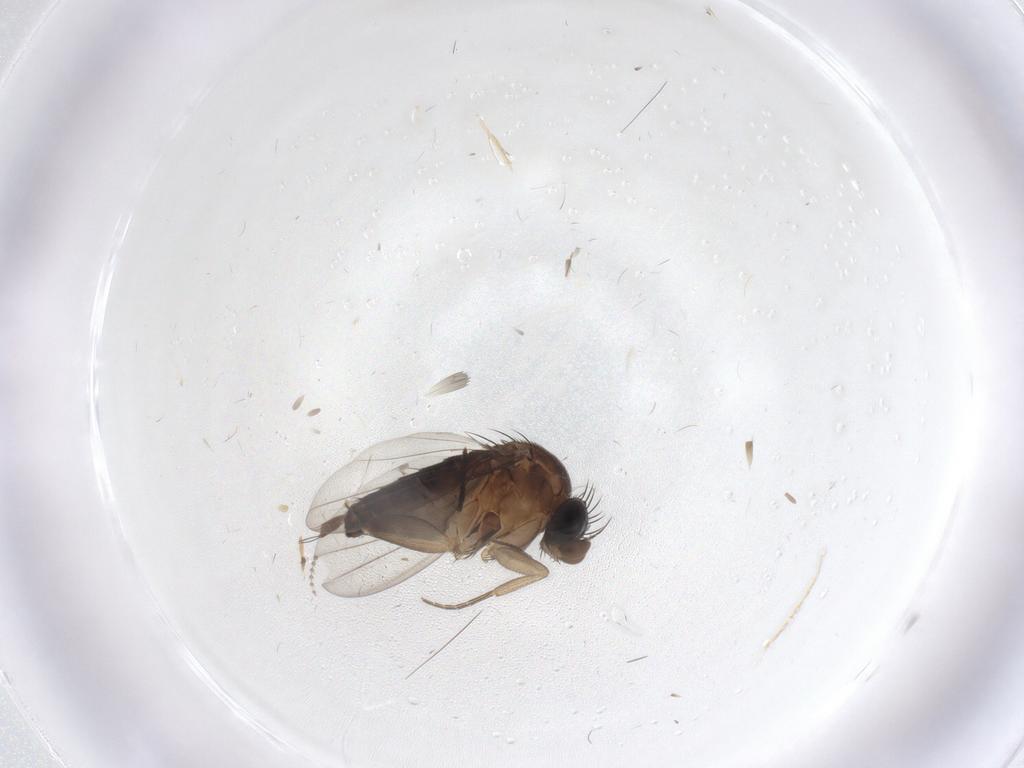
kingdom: Animalia
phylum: Arthropoda
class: Insecta
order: Diptera
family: Phoridae
